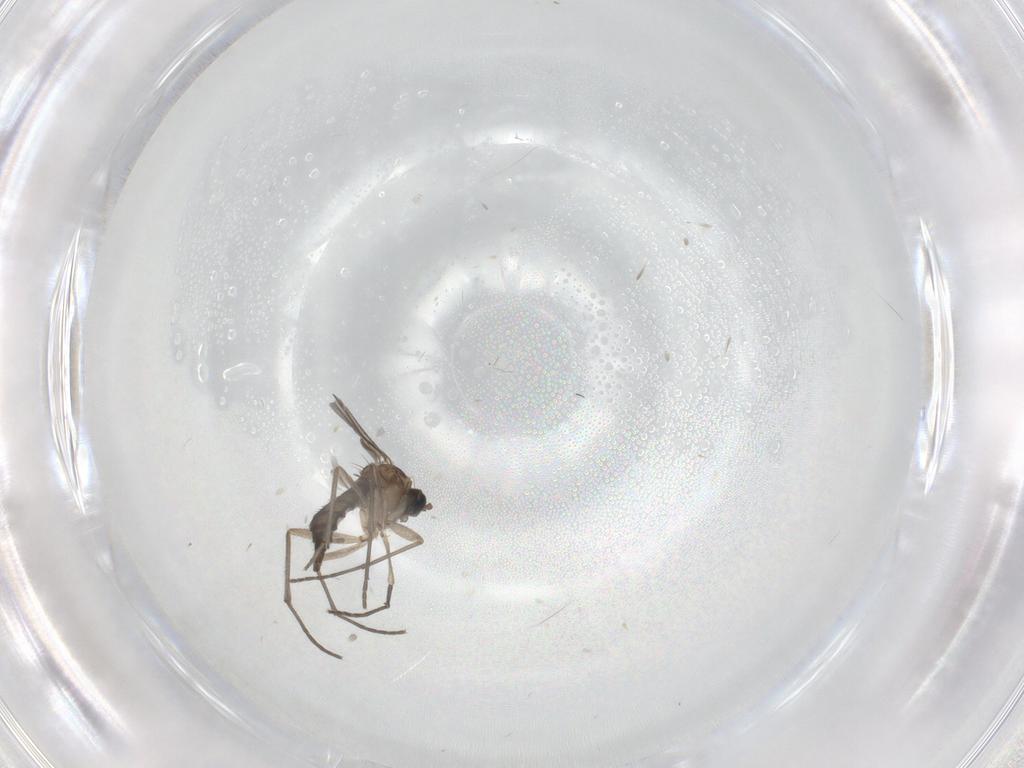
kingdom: Animalia
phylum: Arthropoda
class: Insecta
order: Diptera
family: Sciaridae
